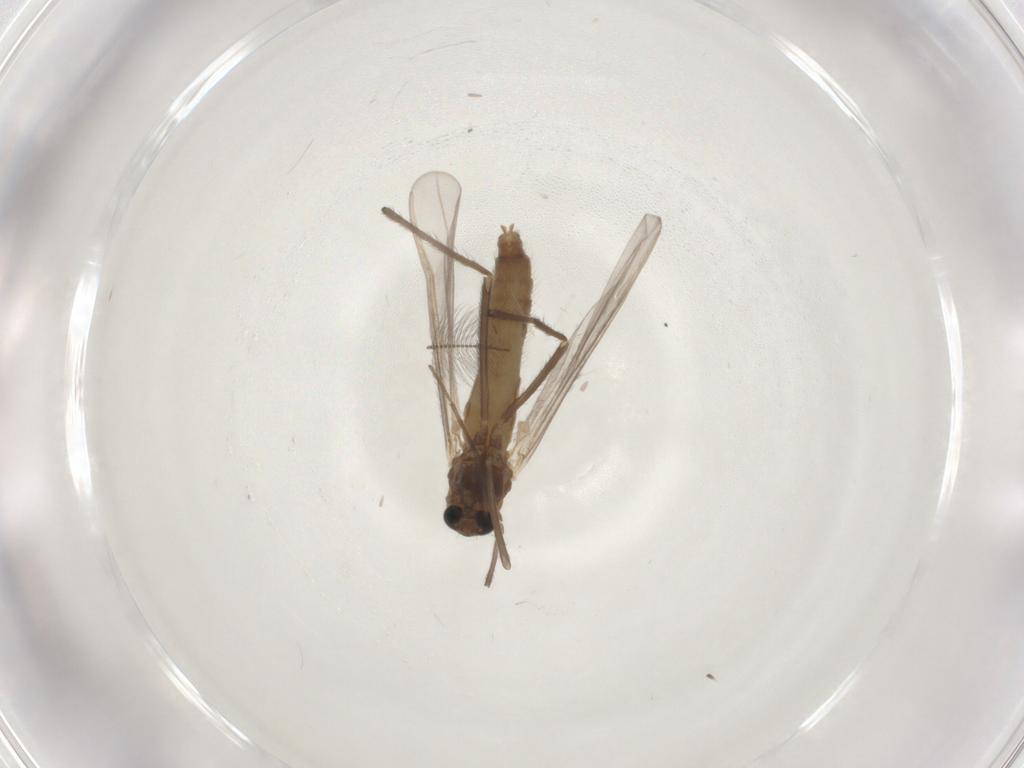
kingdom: Animalia
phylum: Arthropoda
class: Insecta
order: Diptera
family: Chironomidae
